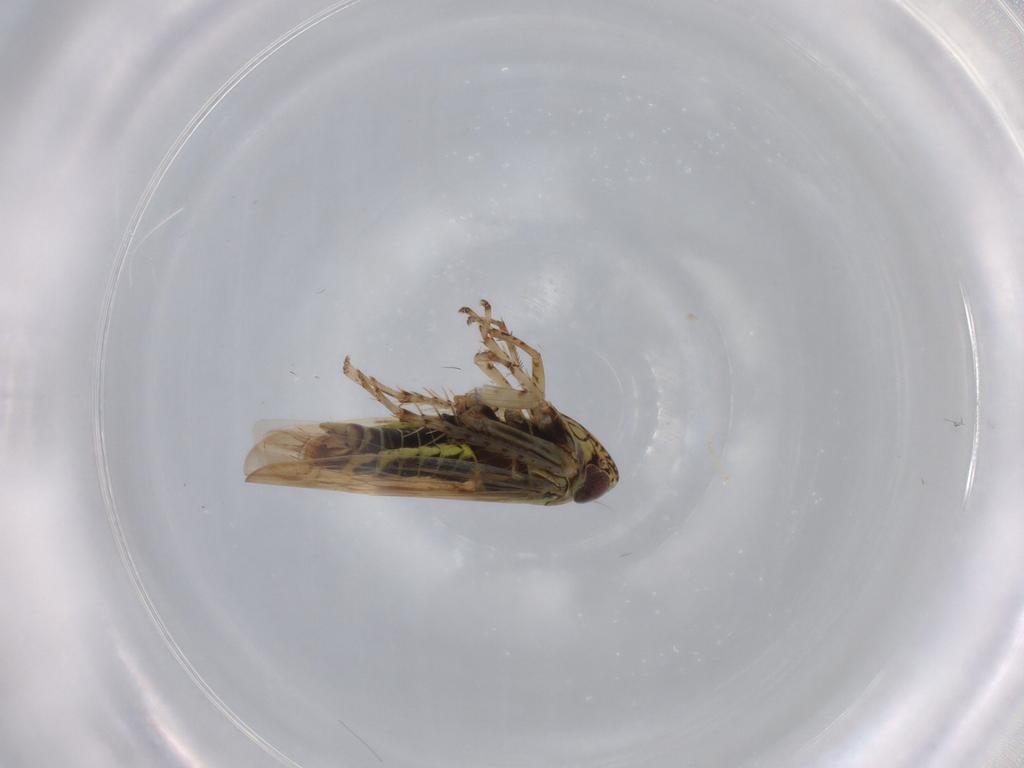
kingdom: Animalia
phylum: Arthropoda
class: Insecta
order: Hemiptera
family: Cicadellidae
